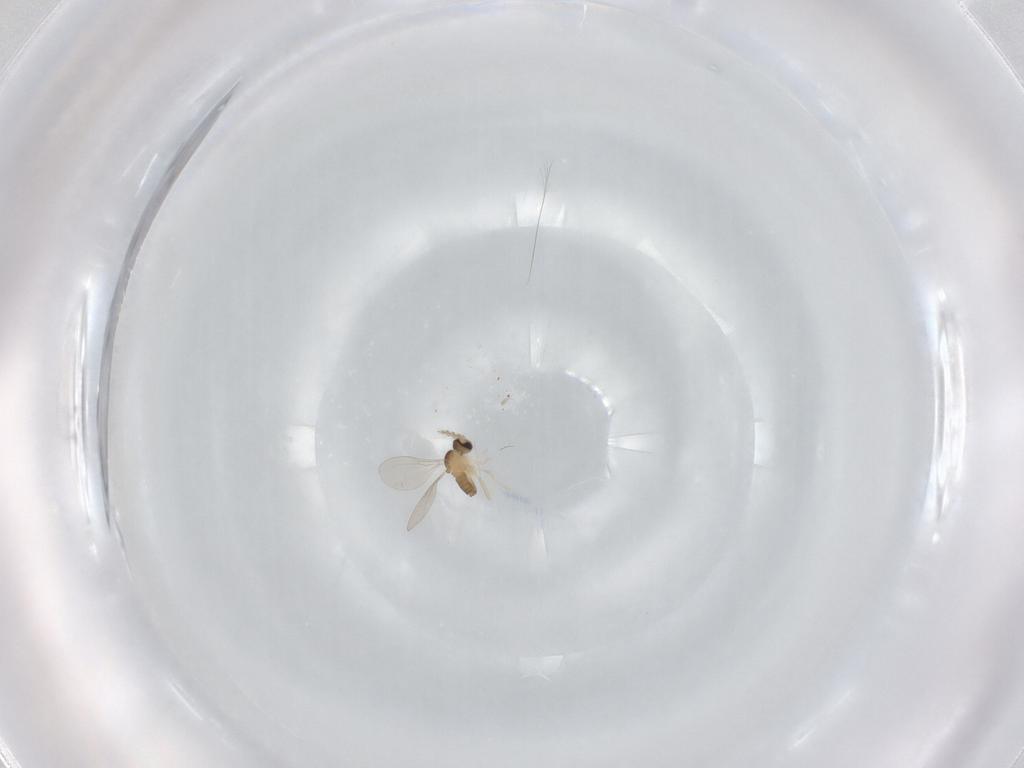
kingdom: Animalia
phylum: Arthropoda
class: Insecta
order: Diptera
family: Cecidomyiidae
